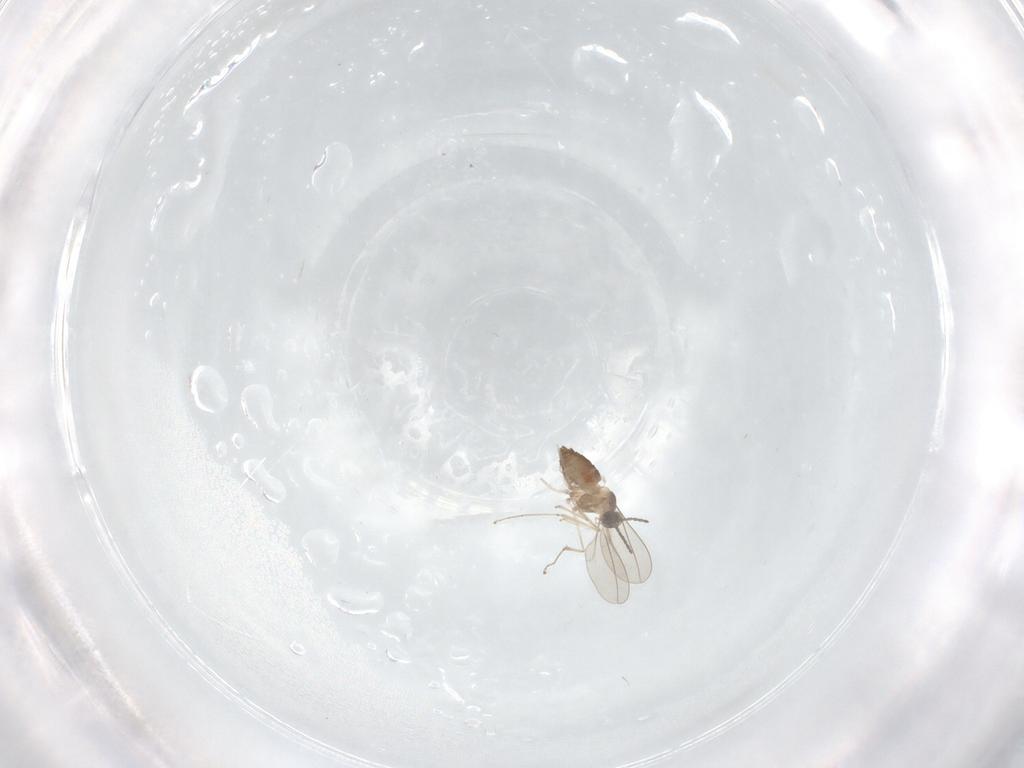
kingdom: Animalia
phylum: Arthropoda
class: Insecta
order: Diptera
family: Cecidomyiidae
